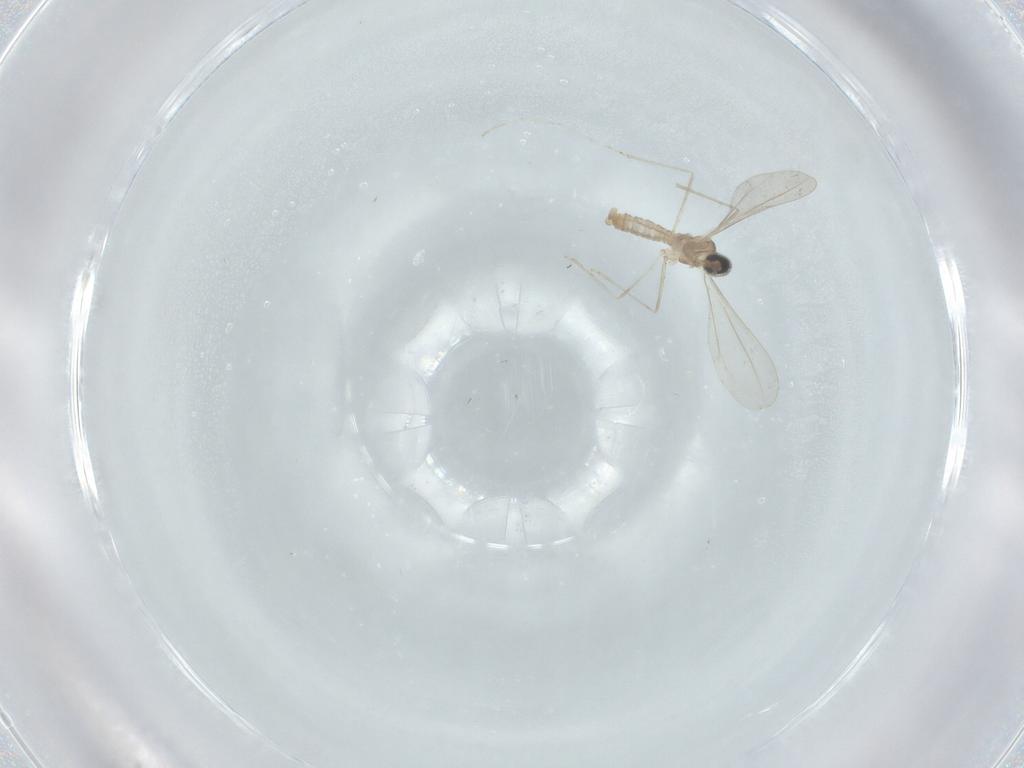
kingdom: Animalia
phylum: Arthropoda
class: Insecta
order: Diptera
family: Cecidomyiidae
